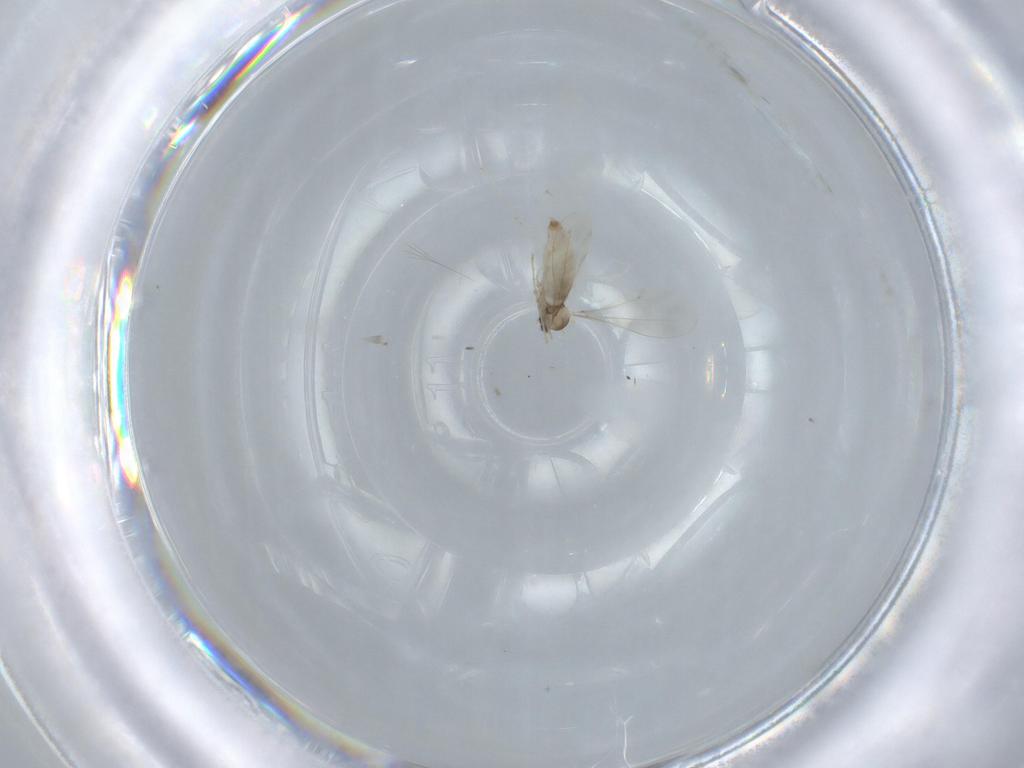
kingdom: Animalia
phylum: Arthropoda
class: Insecta
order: Diptera
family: Cecidomyiidae
